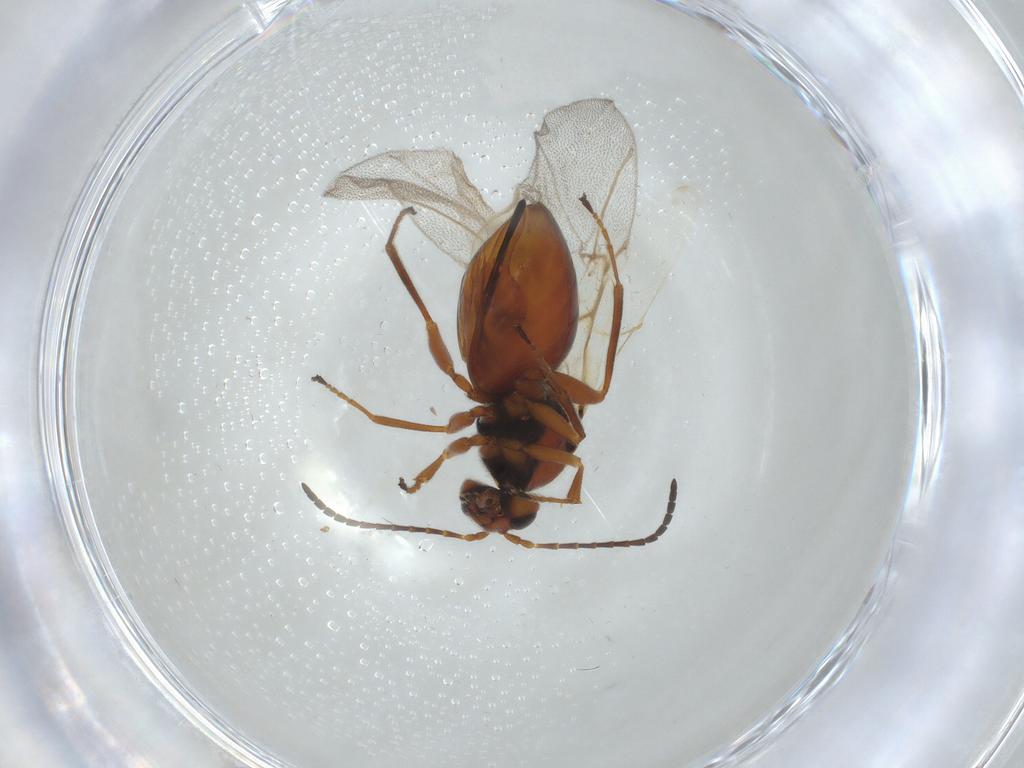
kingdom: Animalia
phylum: Arthropoda
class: Insecta
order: Hymenoptera
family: Cynipidae
